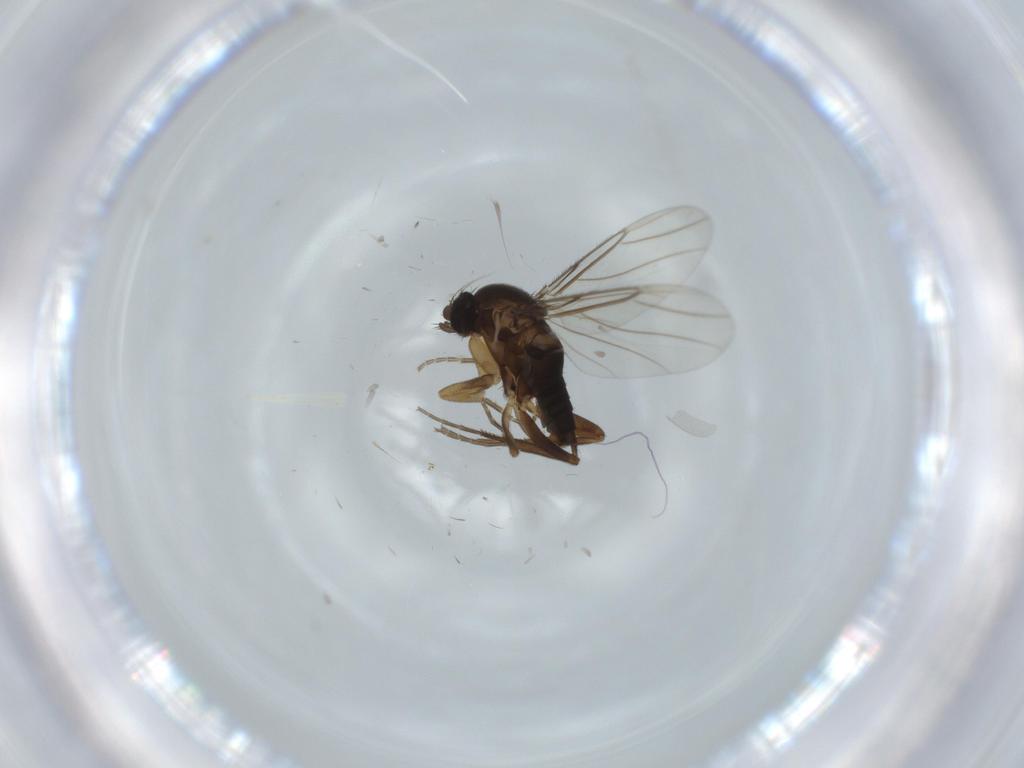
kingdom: Animalia
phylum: Arthropoda
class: Insecta
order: Diptera
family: Phoridae
